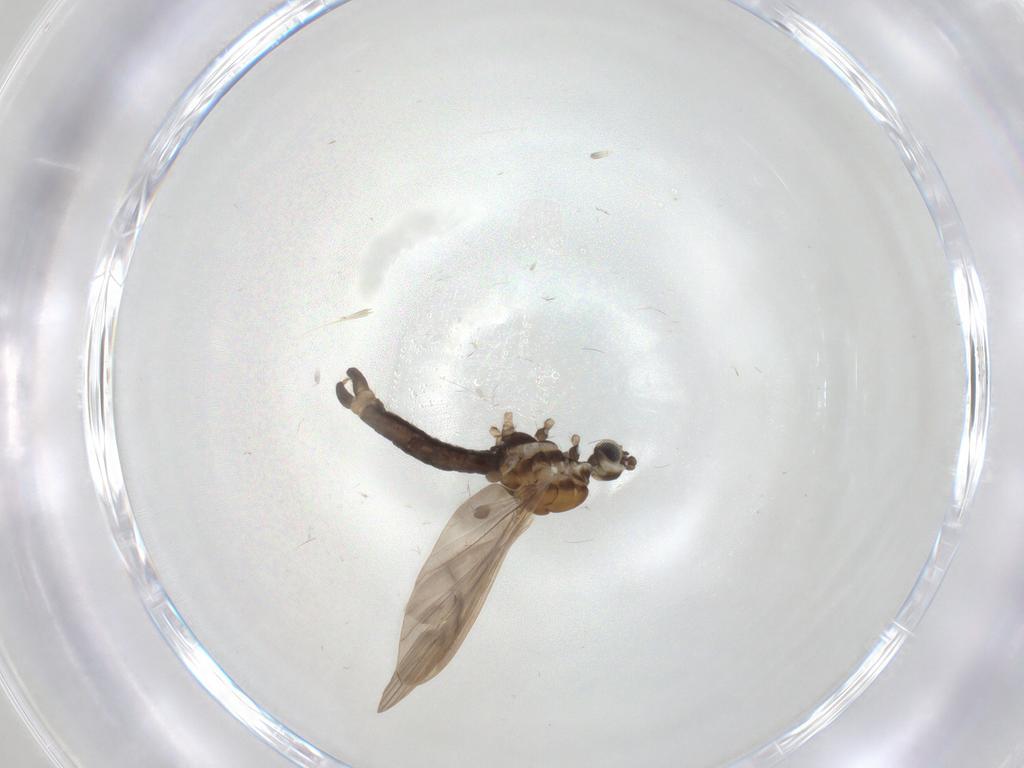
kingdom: Animalia
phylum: Arthropoda
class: Insecta
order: Diptera
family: Limoniidae
